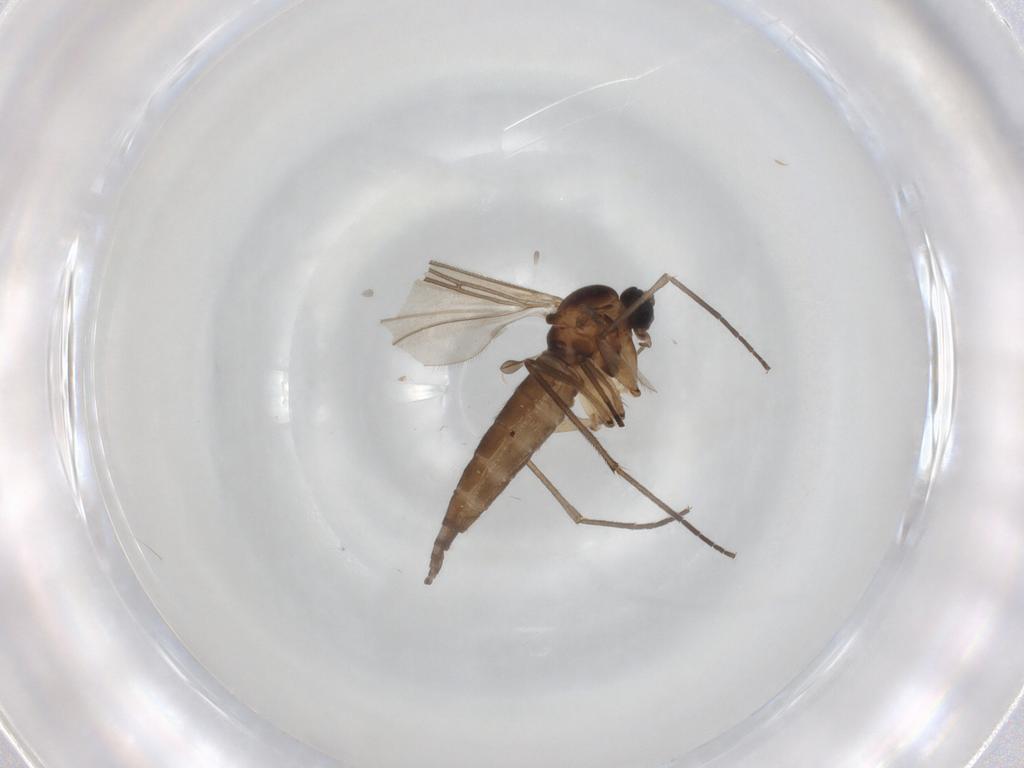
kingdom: Animalia
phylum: Arthropoda
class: Insecta
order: Diptera
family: Sciaridae
